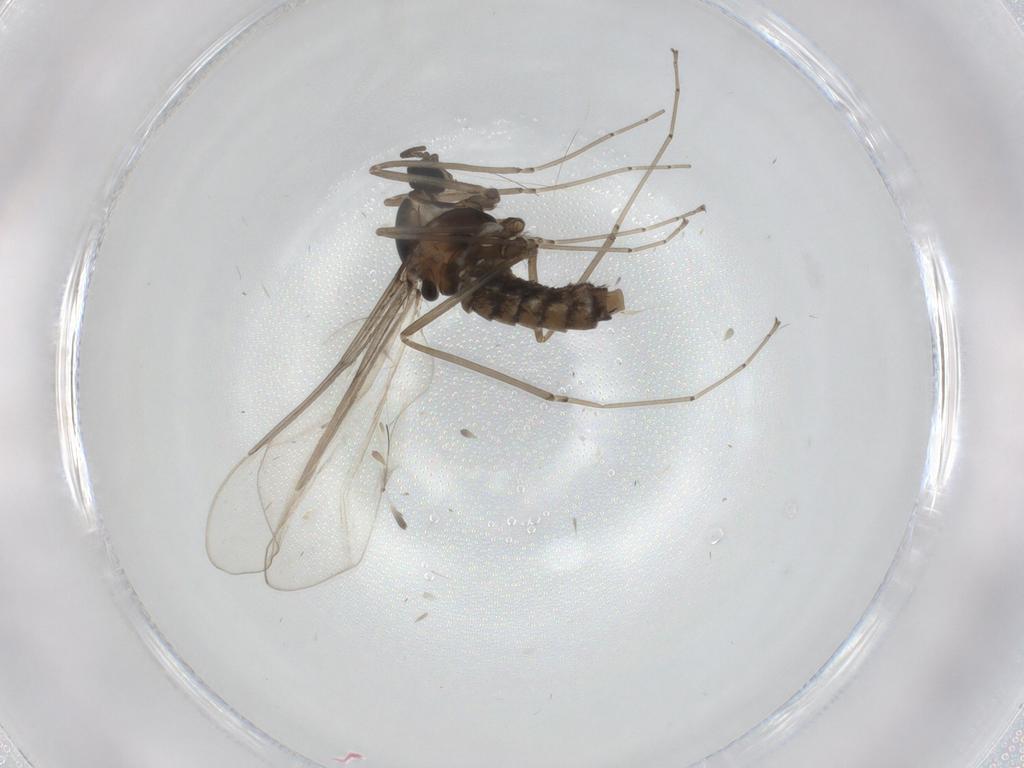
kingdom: Animalia
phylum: Arthropoda
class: Insecta
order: Diptera
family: Cecidomyiidae
